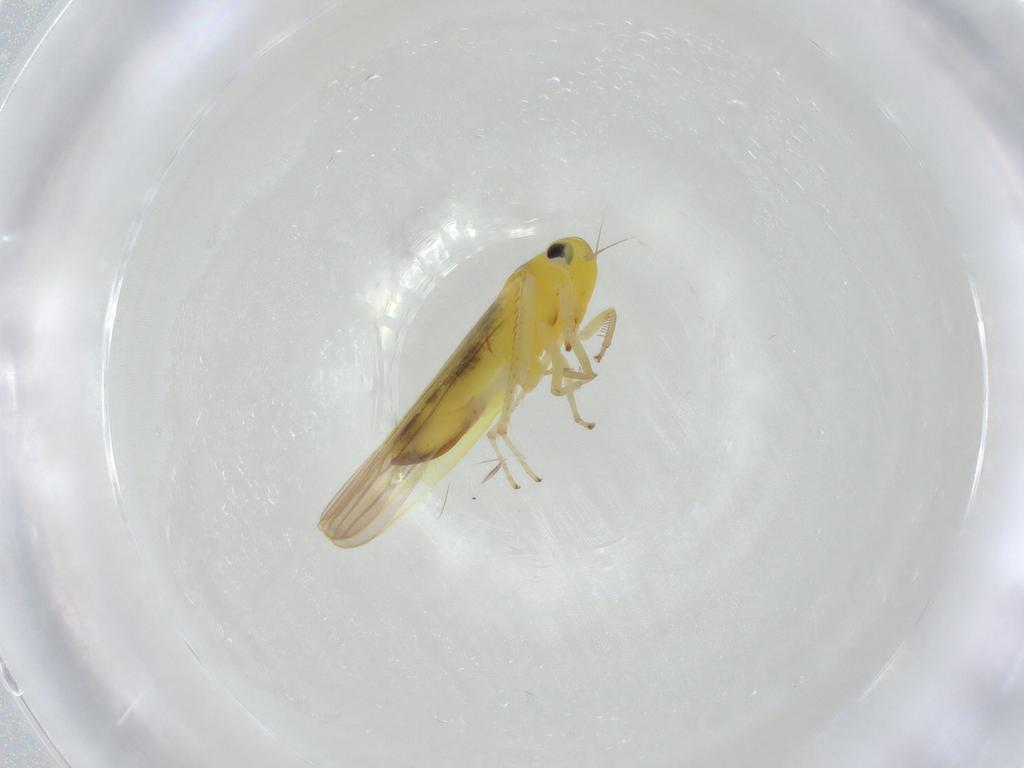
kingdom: Animalia
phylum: Arthropoda
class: Insecta
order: Hemiptera
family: Cicadellidae
